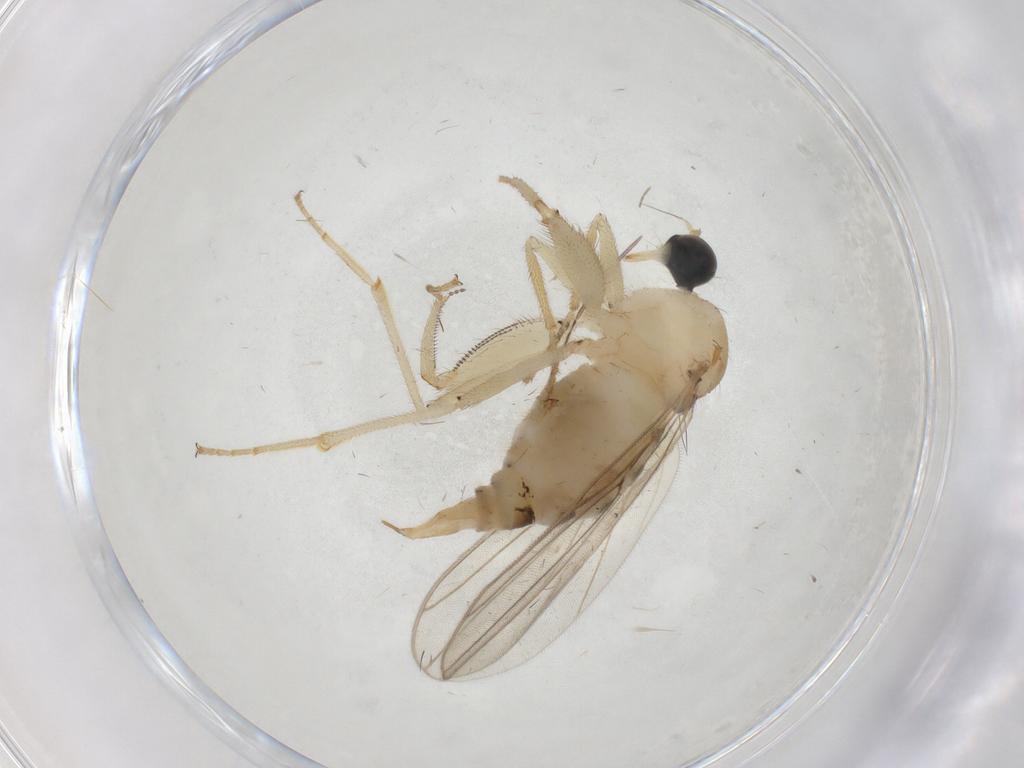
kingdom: Animalia
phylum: Arthropoda
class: Insecta
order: Diptera
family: Hybotidae
